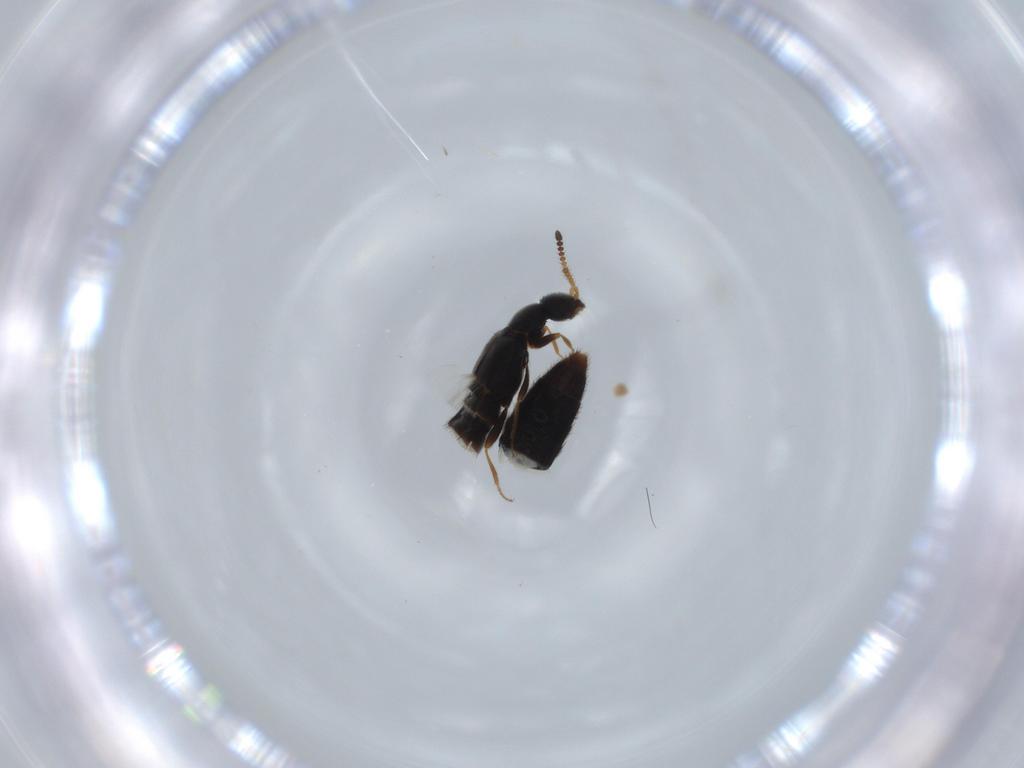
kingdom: Animalia
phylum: Arthropoda
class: Insecta
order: Coleoptera
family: Staphylinidae
